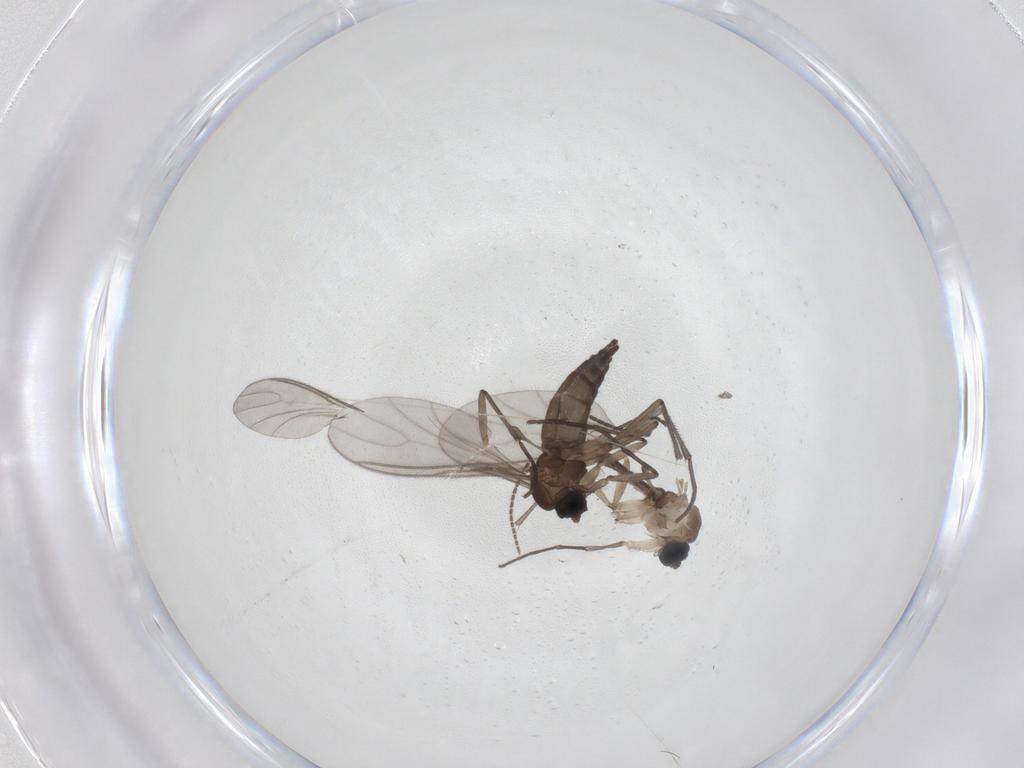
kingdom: Animalia
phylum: Arthropoda
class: Insecta
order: Diptera
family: Sciaridae
